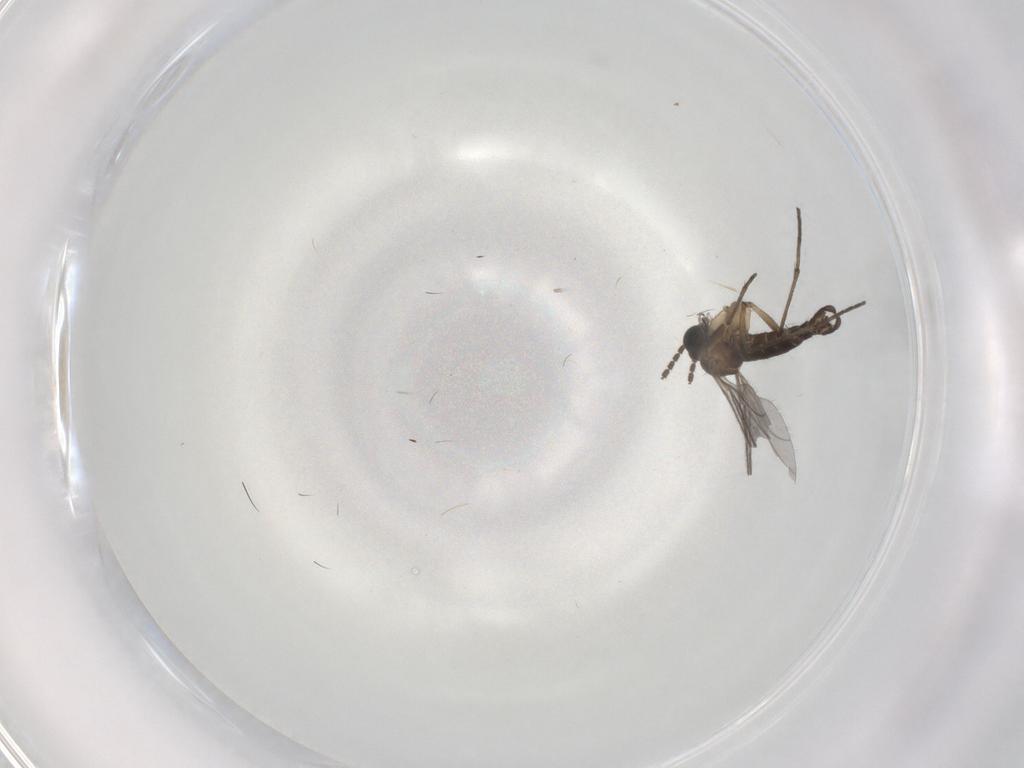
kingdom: Animalia
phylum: Arthropoda
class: Insecta
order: Diptera
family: Sciaridae
